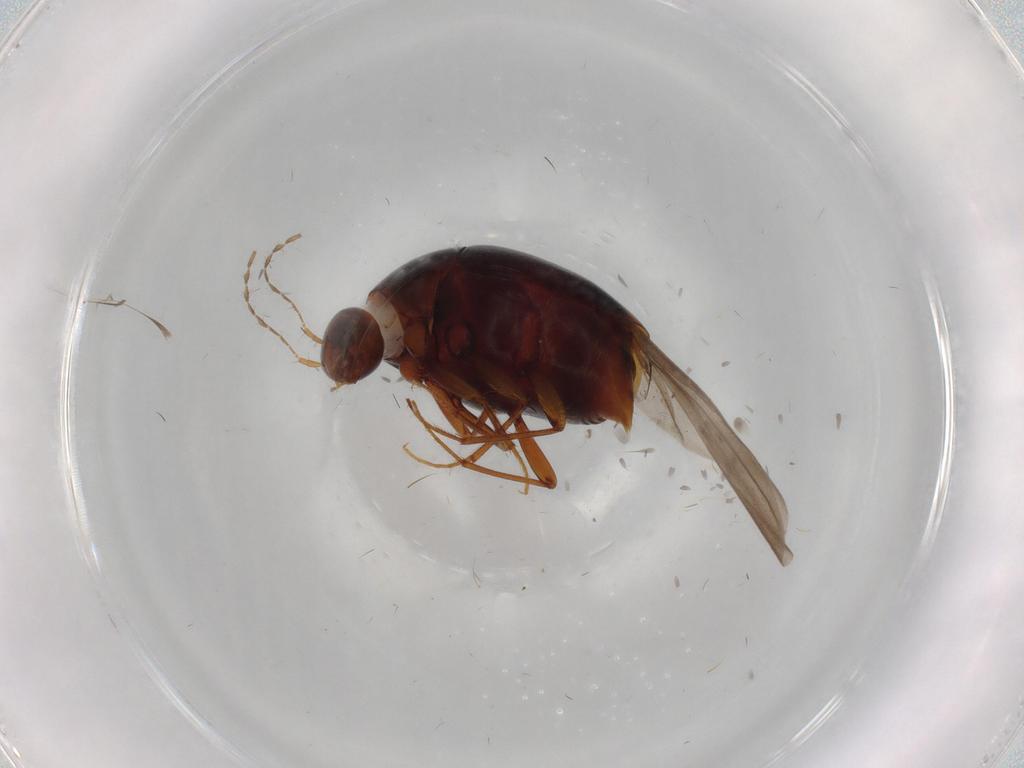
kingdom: Animalia
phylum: Arthropoda
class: Insecta
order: Coleoptera
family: Staphylinidae
